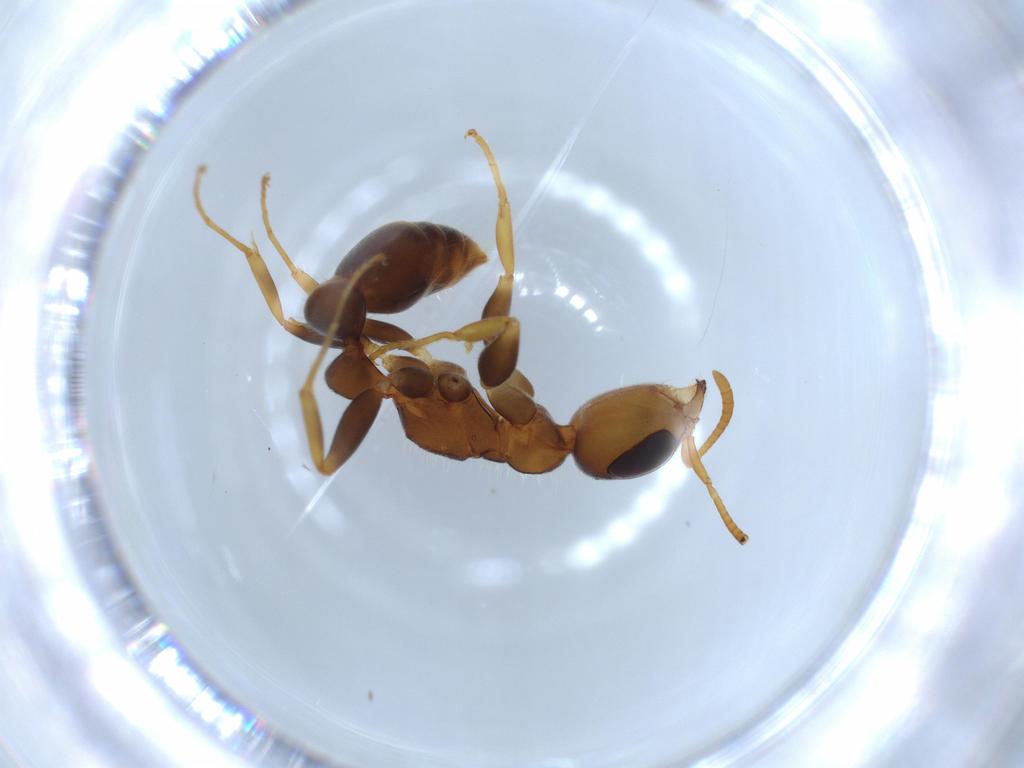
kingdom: Animalia
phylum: Arthropoda
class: Insecta
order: Hymenoptera
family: Formicidae
